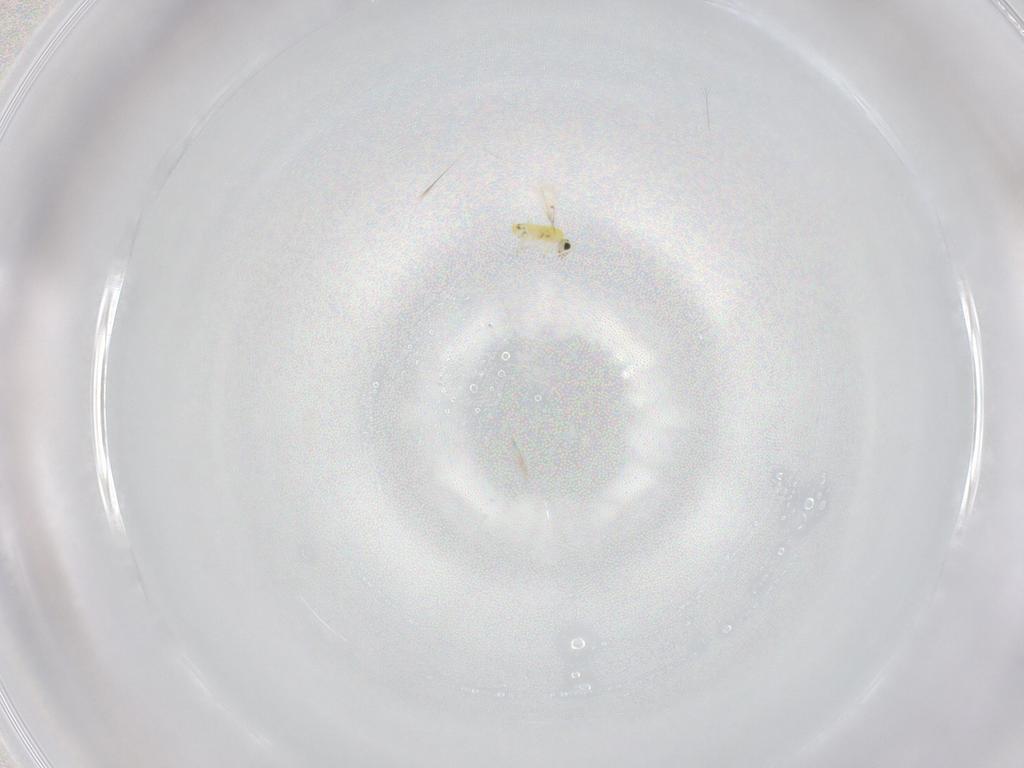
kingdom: Animalia
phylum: Arthropoda
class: Insecta
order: Hymenoptera
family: Trichogrammatidae
